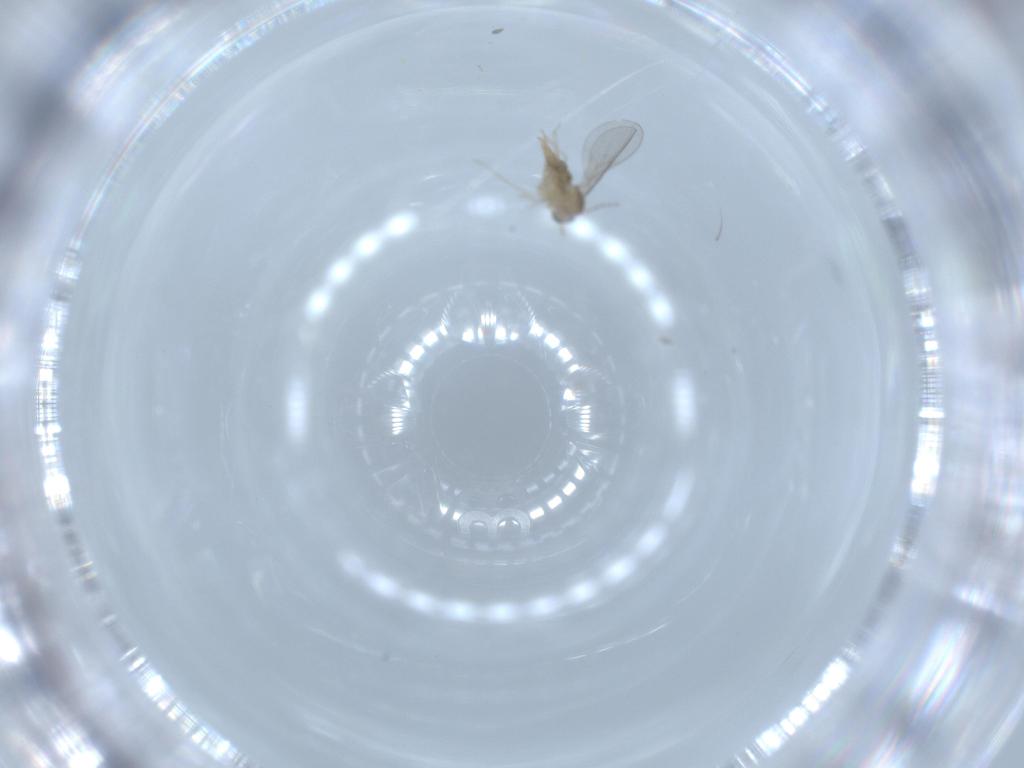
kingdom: Animalia
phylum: Arthropoda
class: Insecta
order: Diptera
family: Cecidomyiidae
